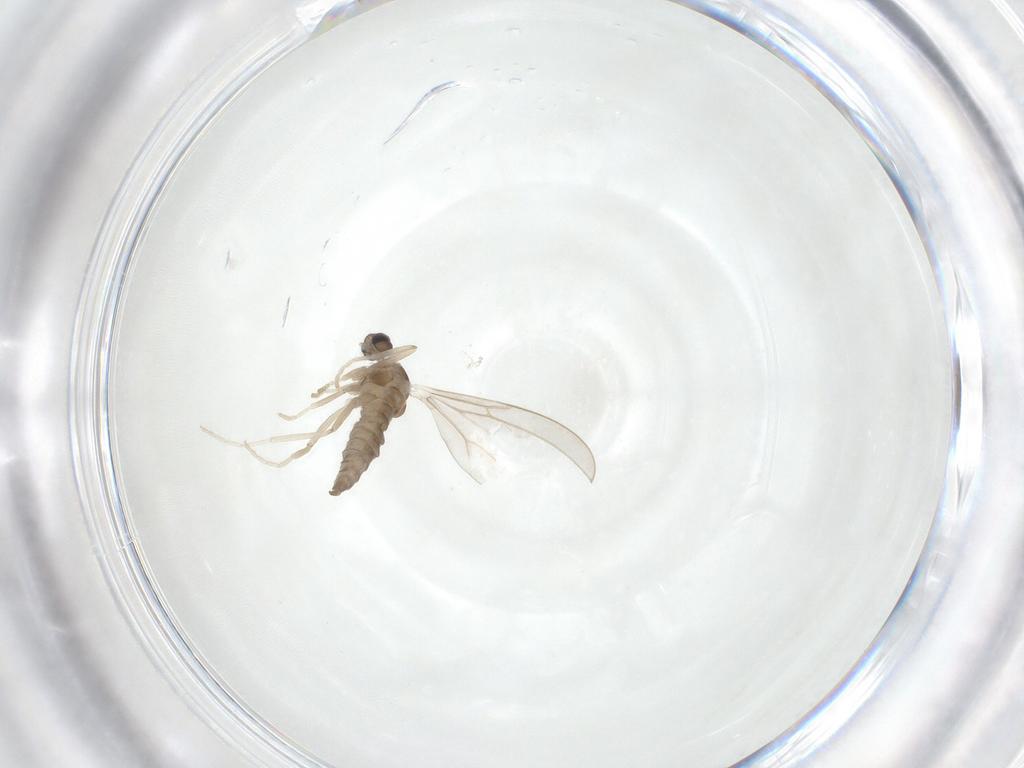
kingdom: Animalia
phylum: Arthropoda
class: Insecta
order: Diptera
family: Cecidomyiidae
